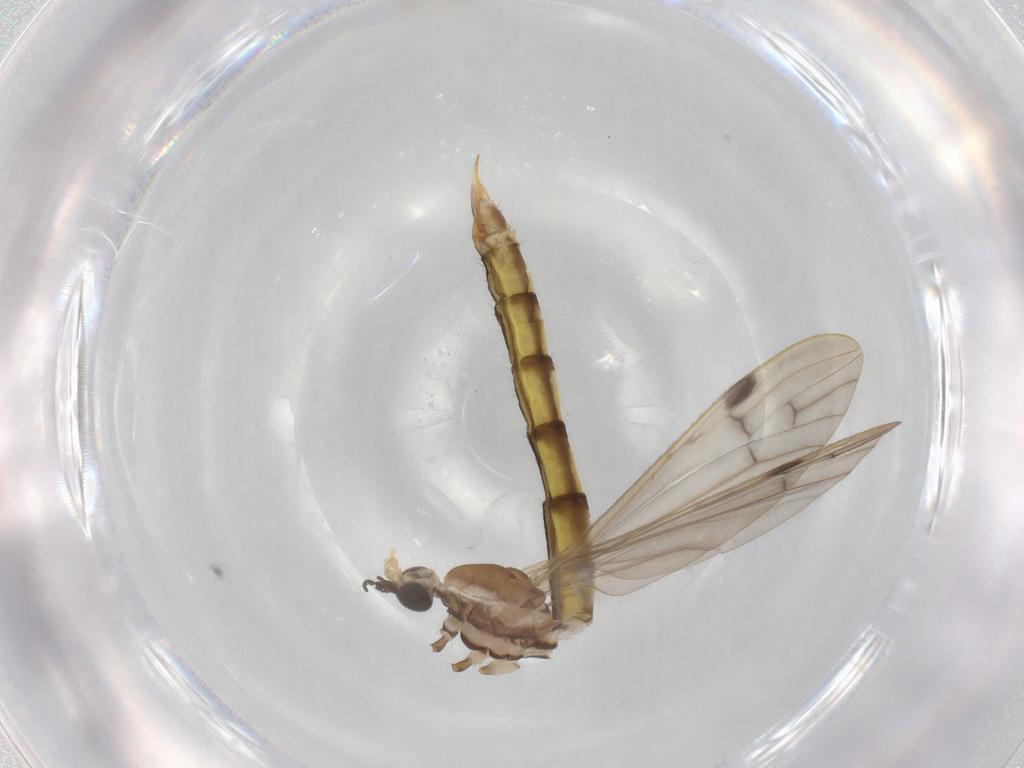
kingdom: Animalia
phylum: Arthropoda
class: Insecta
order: Diptera
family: Limoniidae
